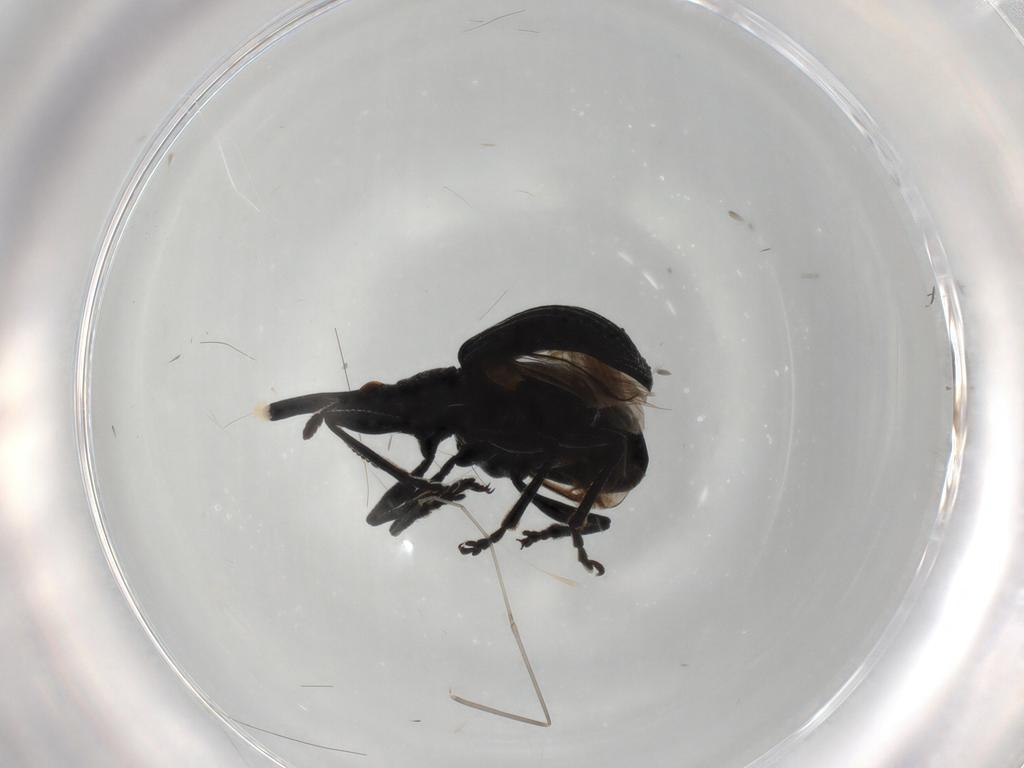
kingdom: Animalia
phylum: Arthropoda
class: Insecta
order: Coleoptera
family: Brentidae
